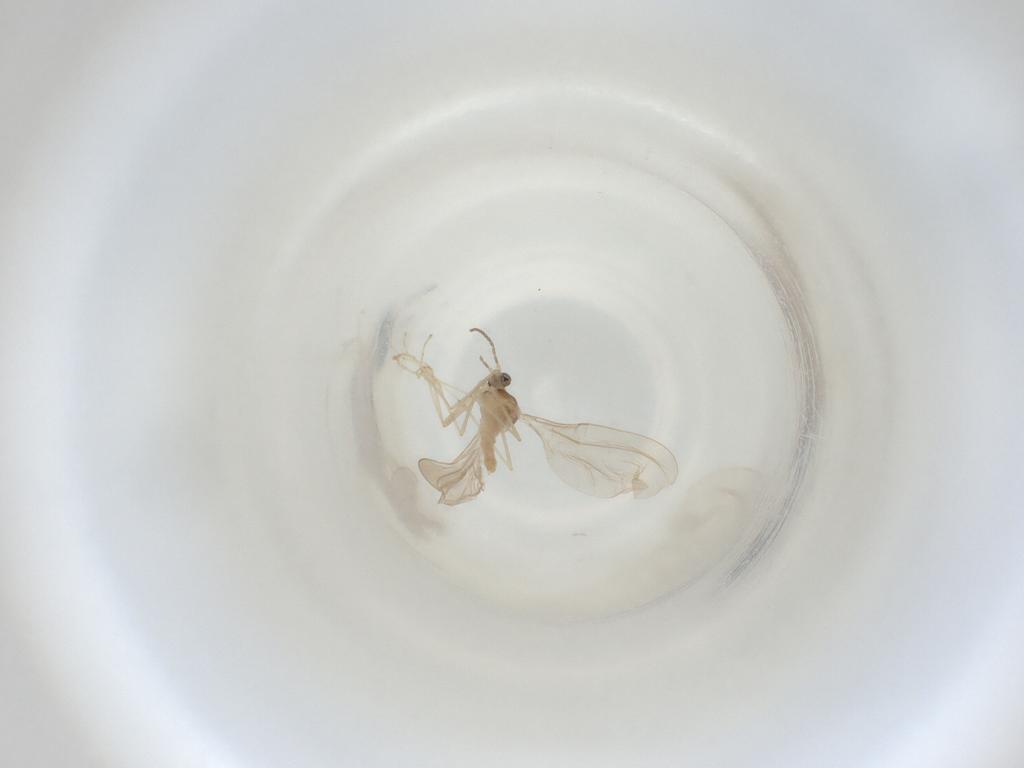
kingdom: Animalia
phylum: Arthropoda
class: Insecta
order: Diptera
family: Cecidomyiidae
